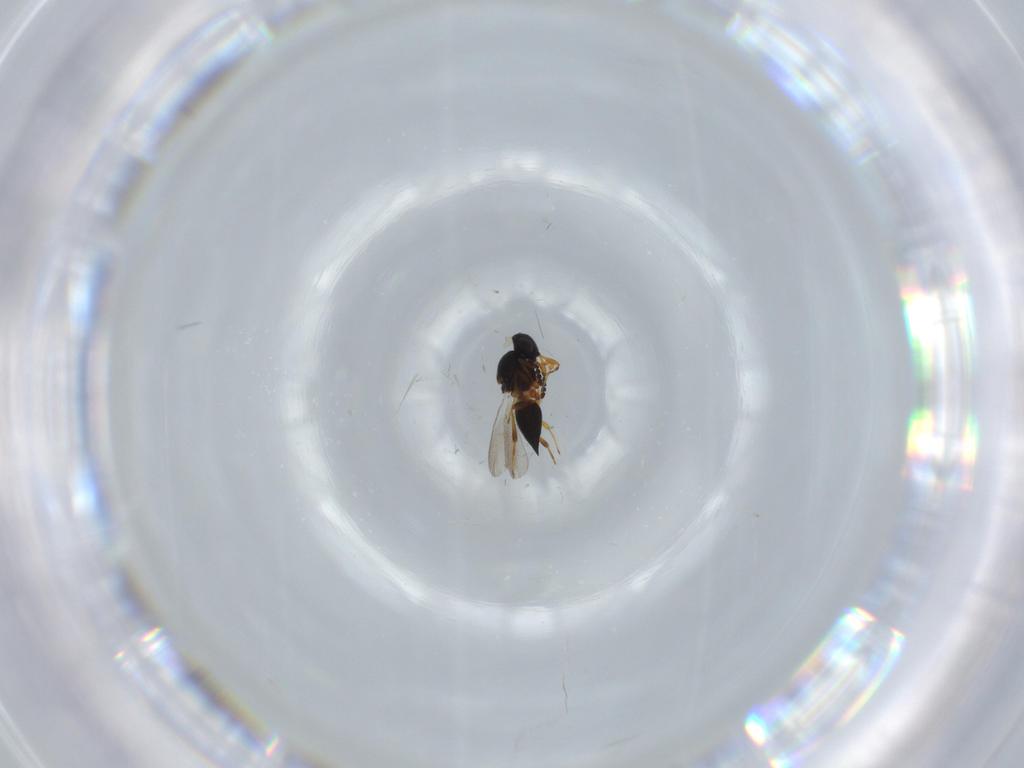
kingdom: Animalia
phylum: Arthropoda
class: Insecta
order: Hymenoptera
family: Platygastridae
